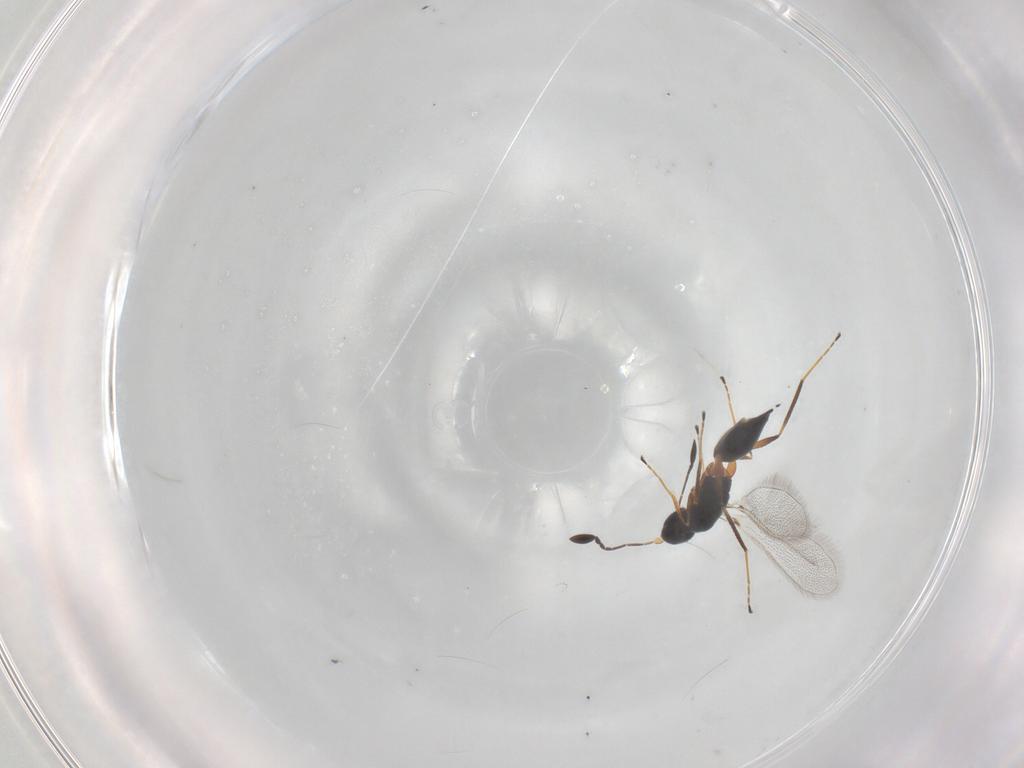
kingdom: Animalia
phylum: Arthropoda
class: Insecta
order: Hymenoptera
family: Mymaridae
